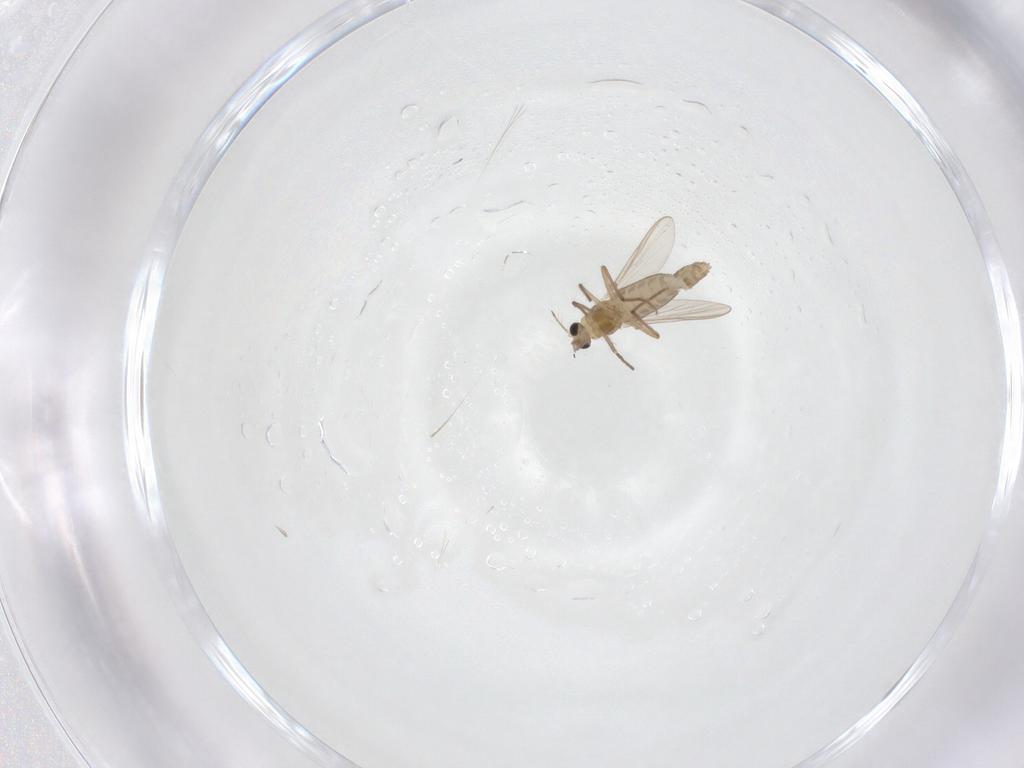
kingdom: Animalia
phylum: Arthropoda
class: Insecta
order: Diptera
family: Chironomidae
